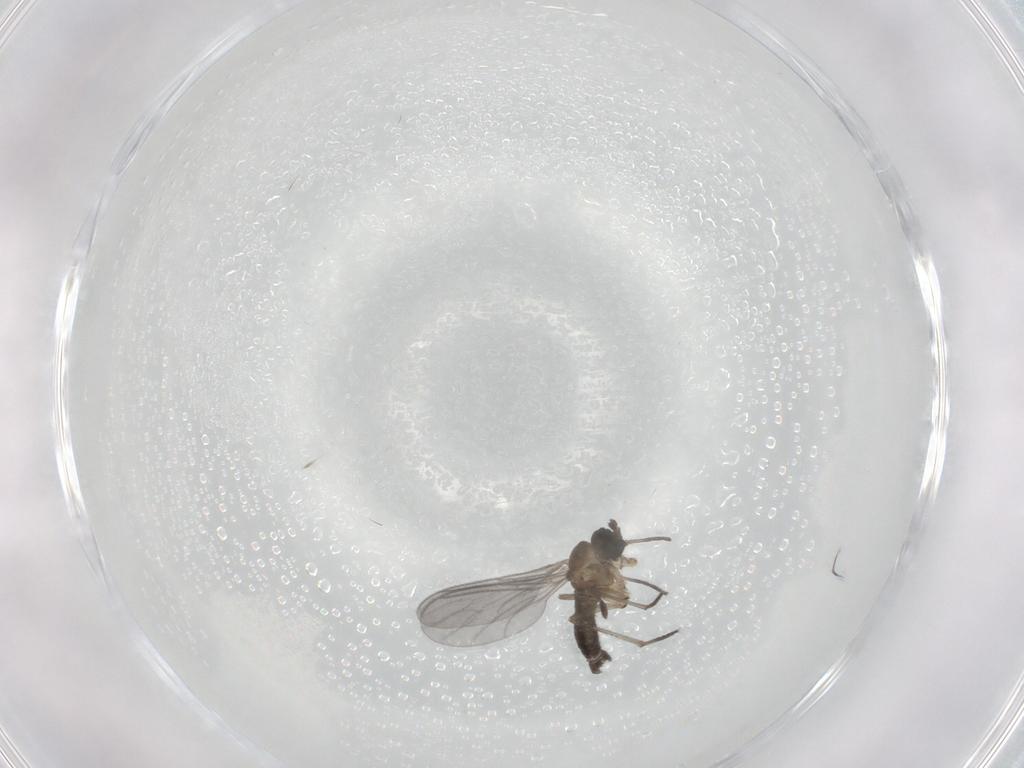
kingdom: Animalia
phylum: Arthropoda
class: Insecta
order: Diptera
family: Sciaridae
